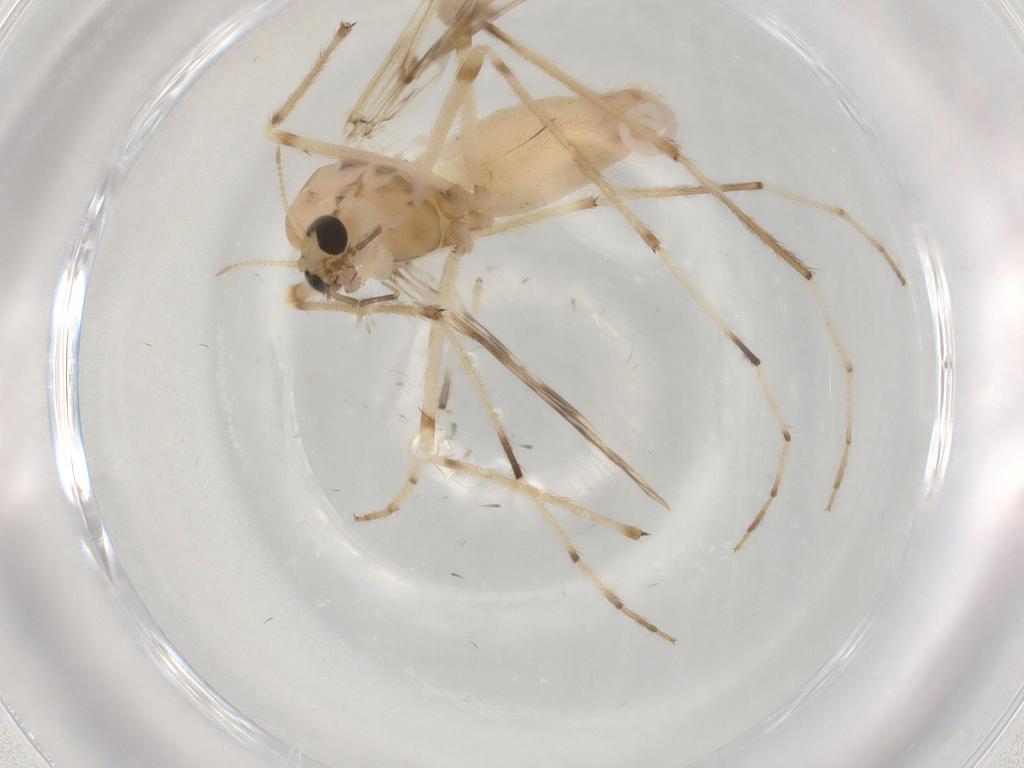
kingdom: Animalia
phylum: Arthropoda
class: Insecta
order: Diptera
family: Chironomidae
